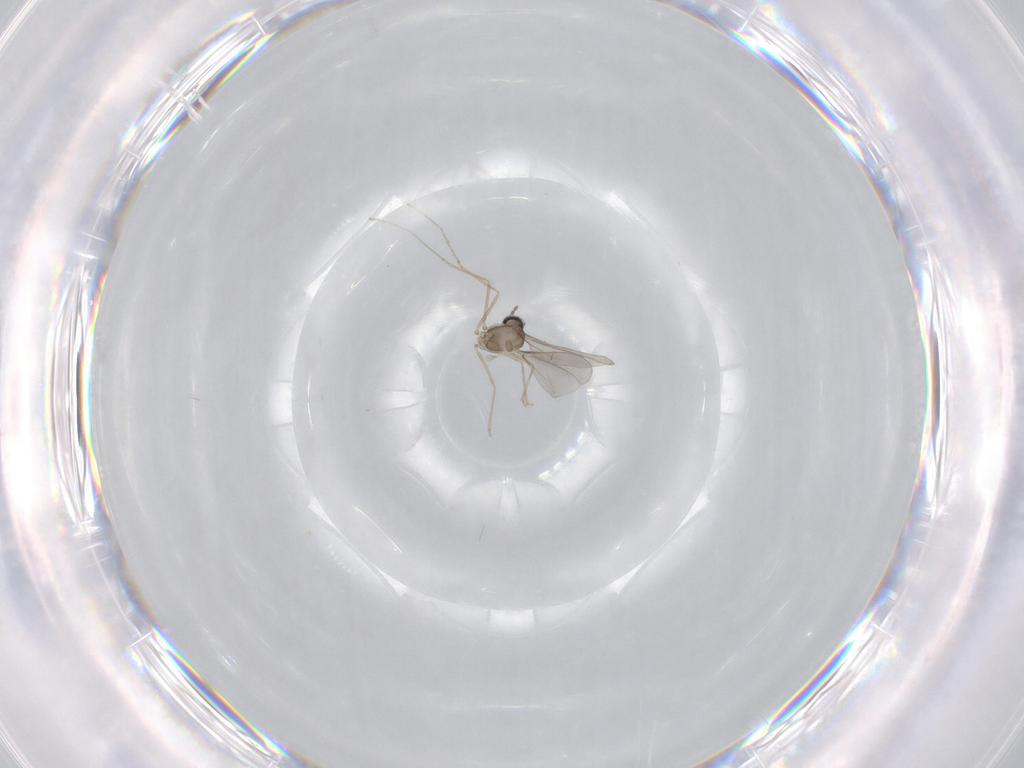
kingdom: Animalia
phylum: Arthropoda
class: Insecta
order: Diptera
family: Cecidomyiidae
